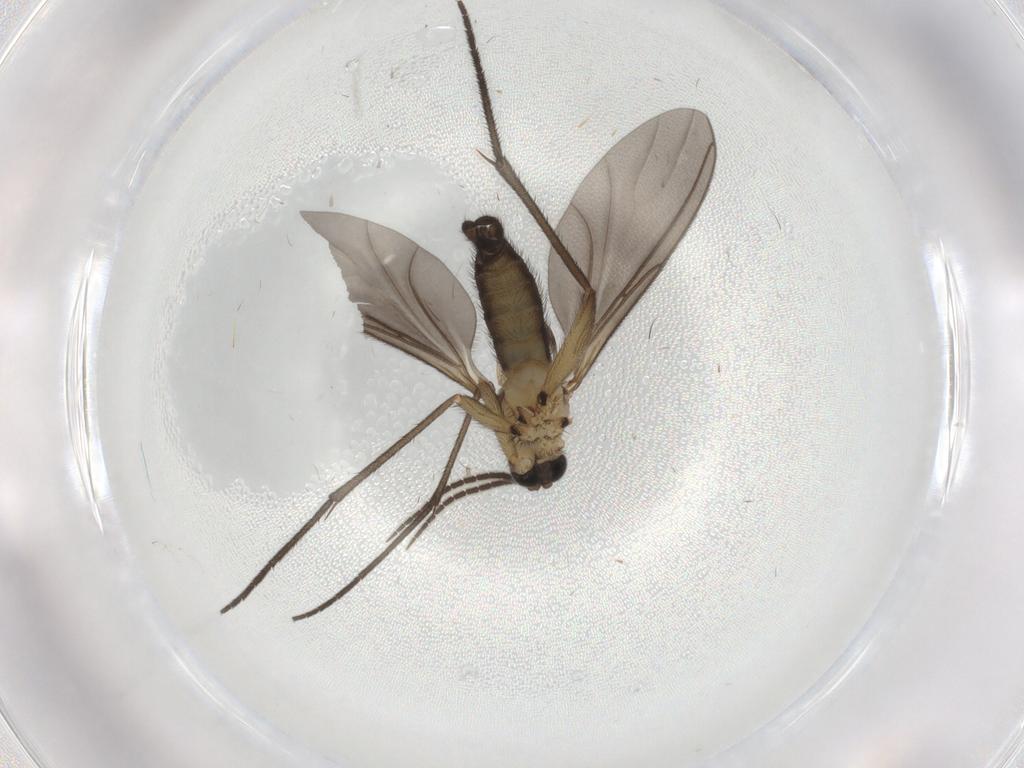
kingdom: Animalia
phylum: Arthropoda
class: Insecta
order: Diptera
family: Sciaridae
